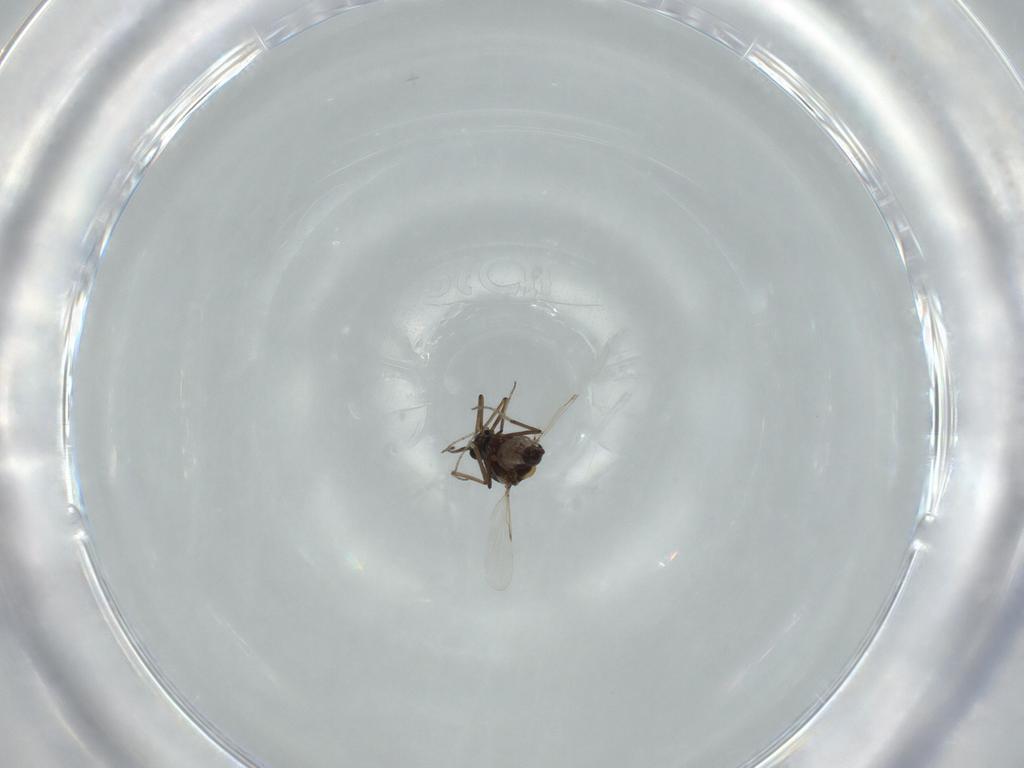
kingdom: Animalia
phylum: Arthropoda
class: Insecta
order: Diptera
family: Ceratopogonidae
